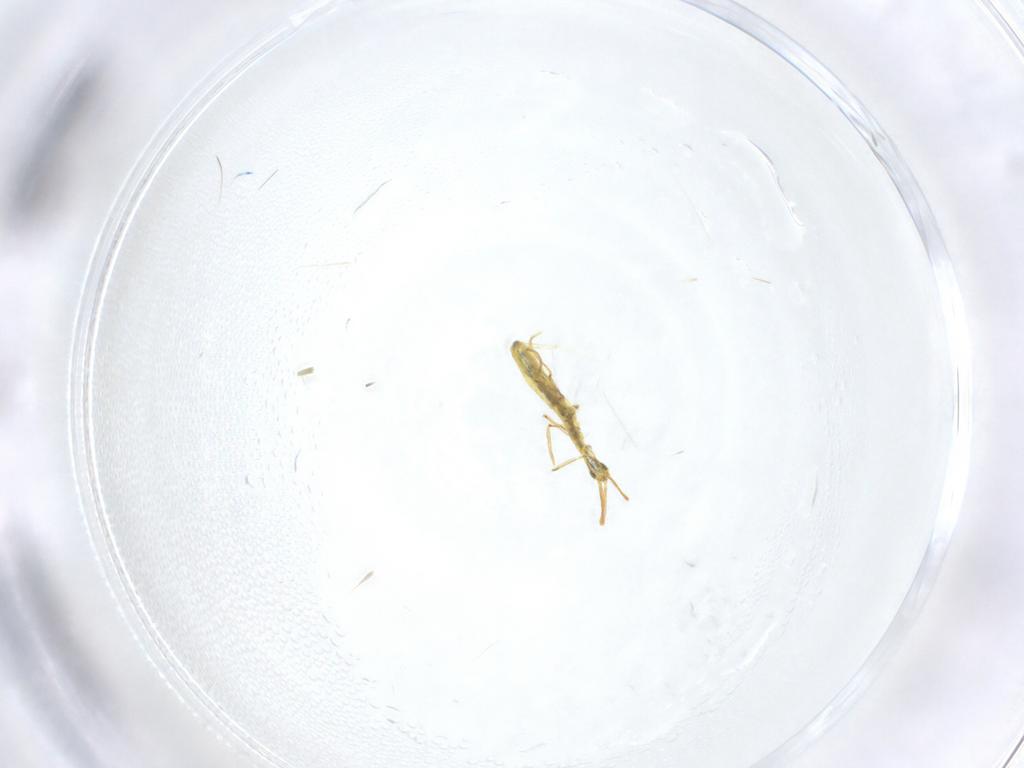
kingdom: Animalia
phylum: Arthropoda
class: Insecta
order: Diptera
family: Chironomidae
